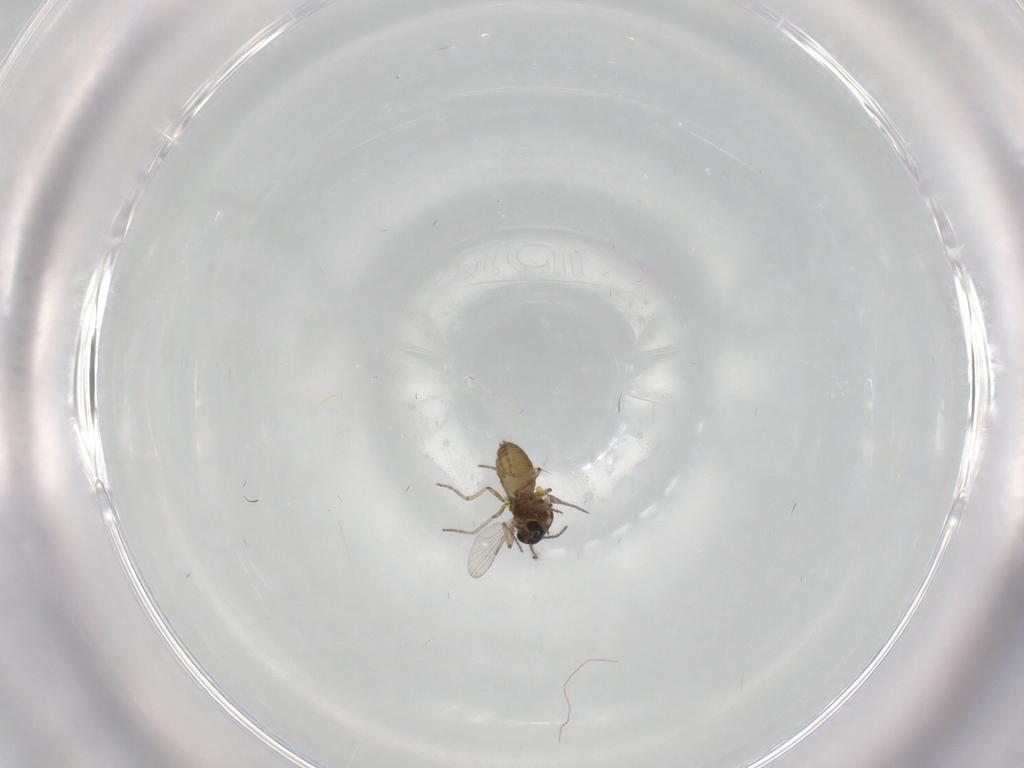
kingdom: Animalia
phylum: Arthropoda
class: Insecta
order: Diptera
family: Ceratopogonidae
